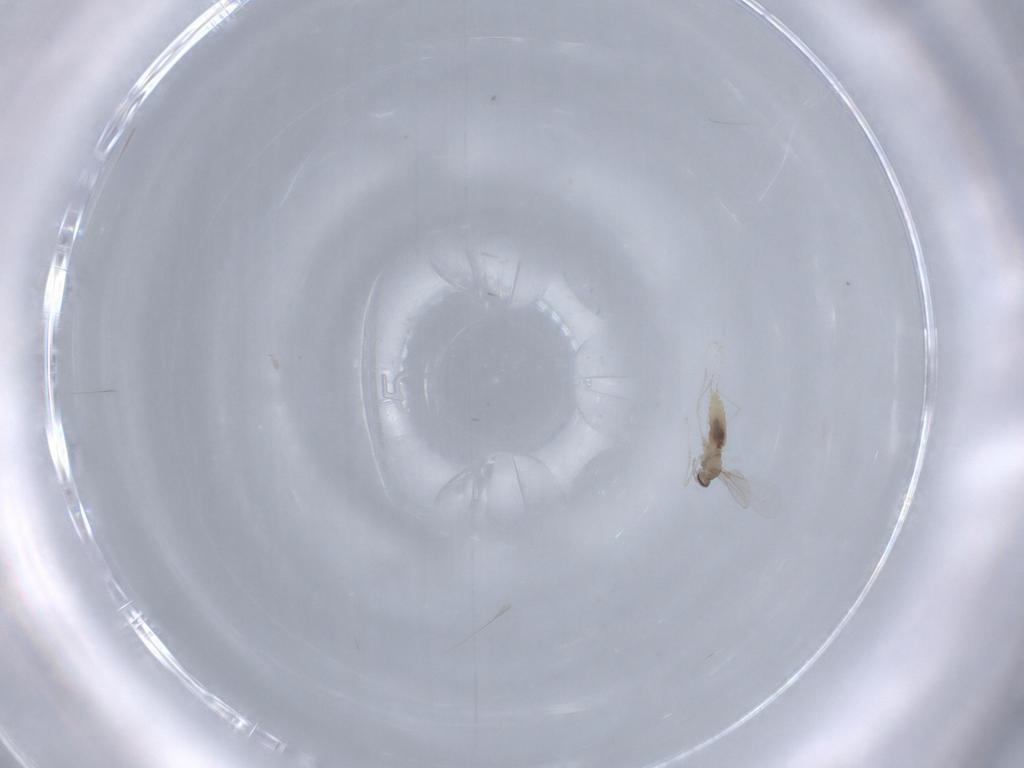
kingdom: Animalia
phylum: Arthropoda
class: Insecta
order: Diptera
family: Cecidomyiidae
